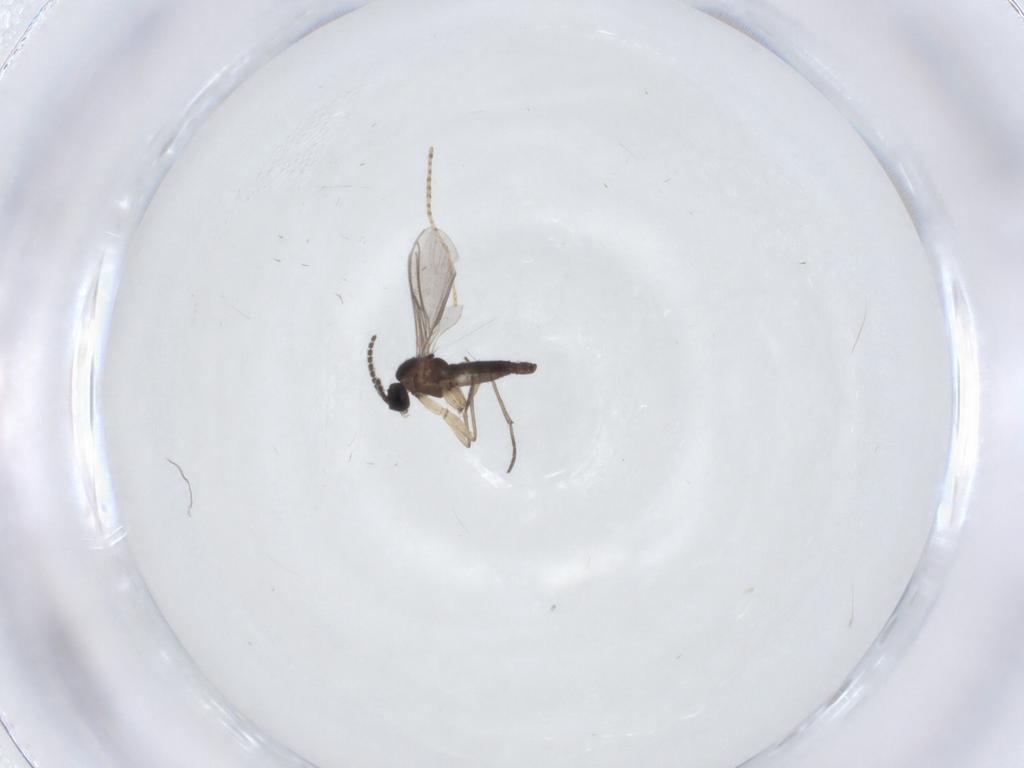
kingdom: Animalia
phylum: Arthropoda
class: Insecta
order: Diptera
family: Sciaridae
